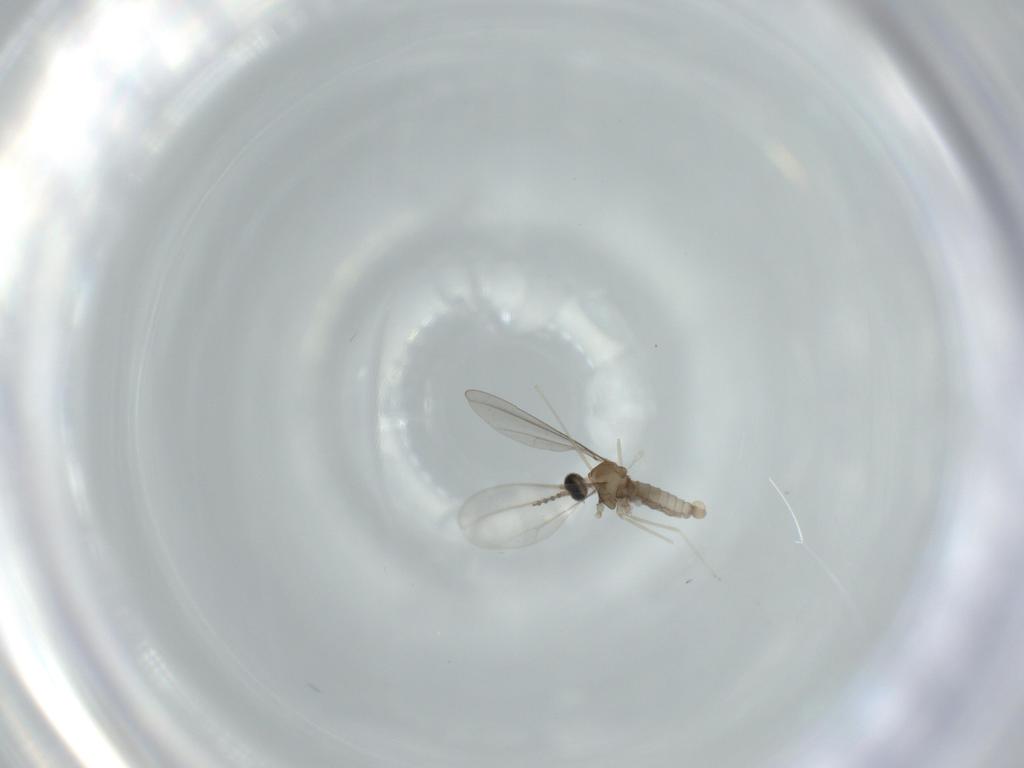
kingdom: Animalia
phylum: Arthropoda
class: Insecta
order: Diptera
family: Cecidomyiidae
